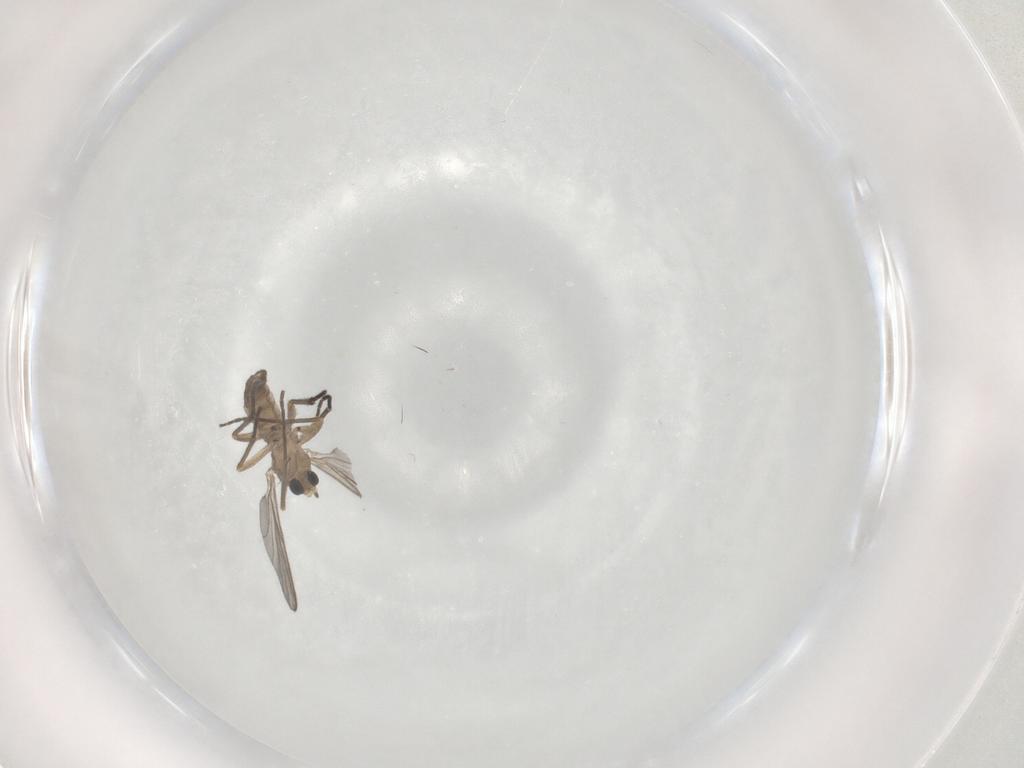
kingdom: Animalia
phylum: Arthropoda
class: Insecta
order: Diptera
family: Sciaridae
